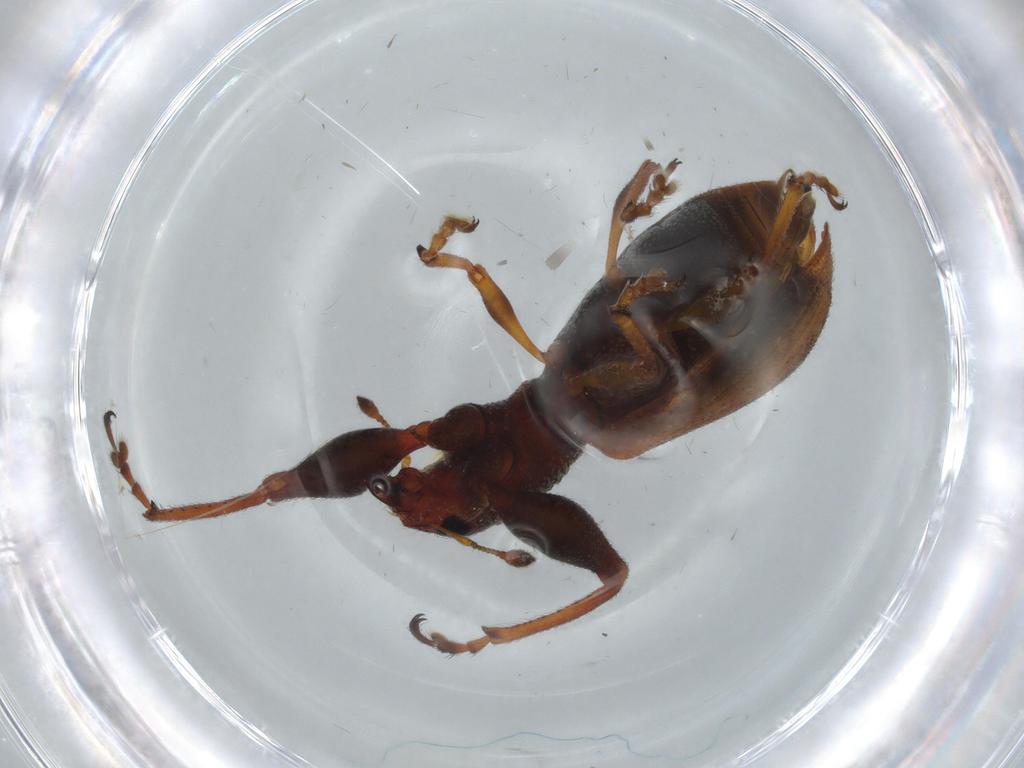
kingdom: Animalia
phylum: Arthropoda
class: Insecta
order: Coleoptera
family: Curculionidae
